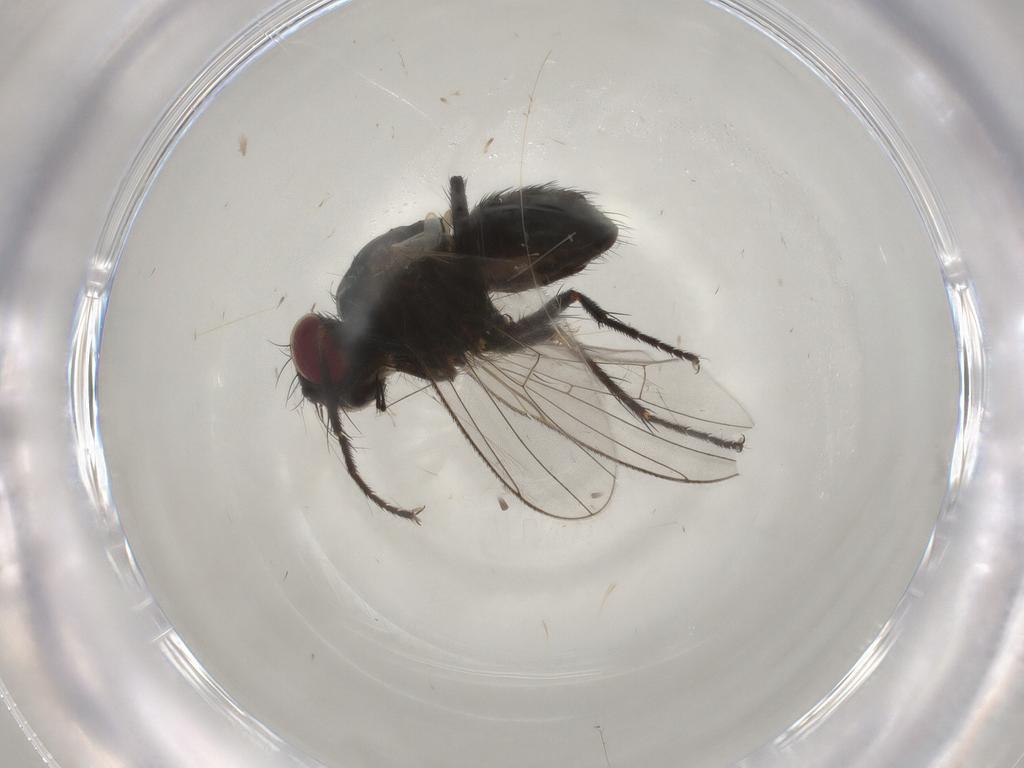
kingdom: Animalia
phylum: Arthropoda
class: Insecta
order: Diptera
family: Muscidae
